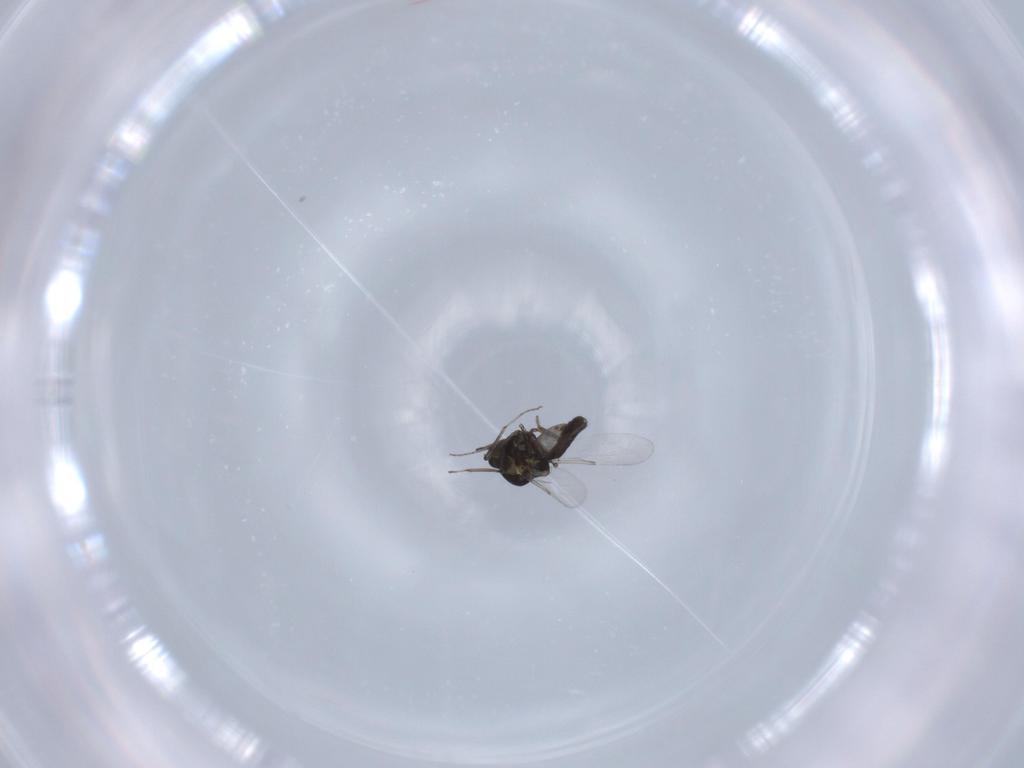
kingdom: Animalia
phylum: Arthropoda
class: Insecta
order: Diptera
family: Ceratopogonidae
